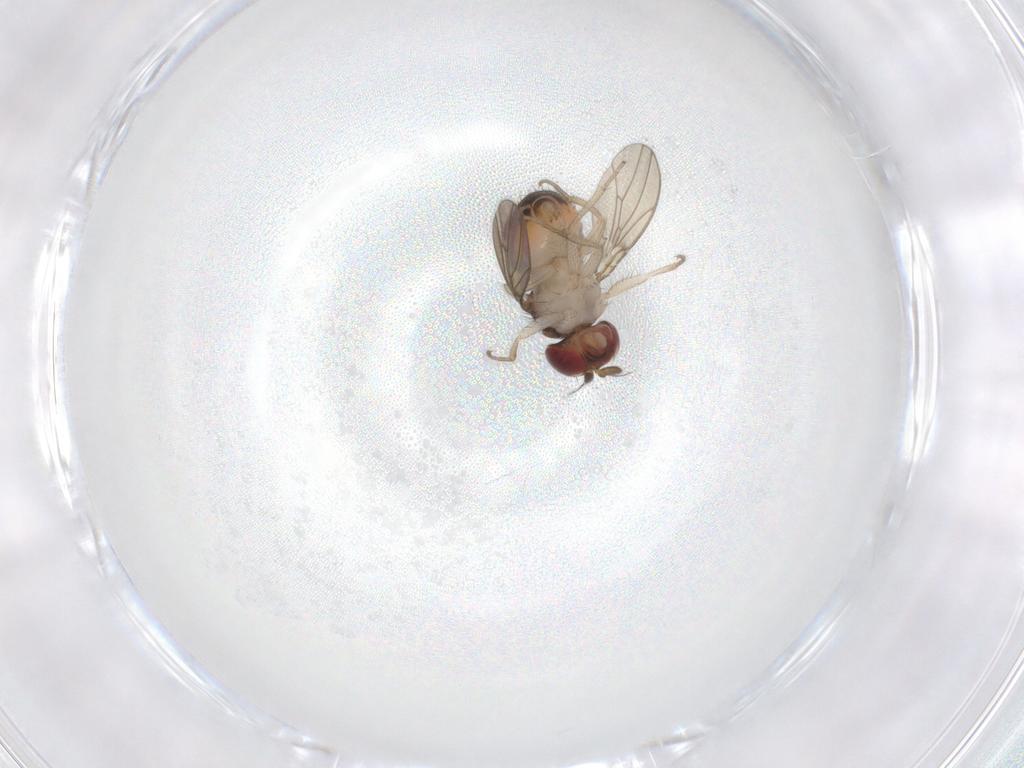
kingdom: Animalia
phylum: Arthropoda
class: Insecta
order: Diptera
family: Drosophilidae
